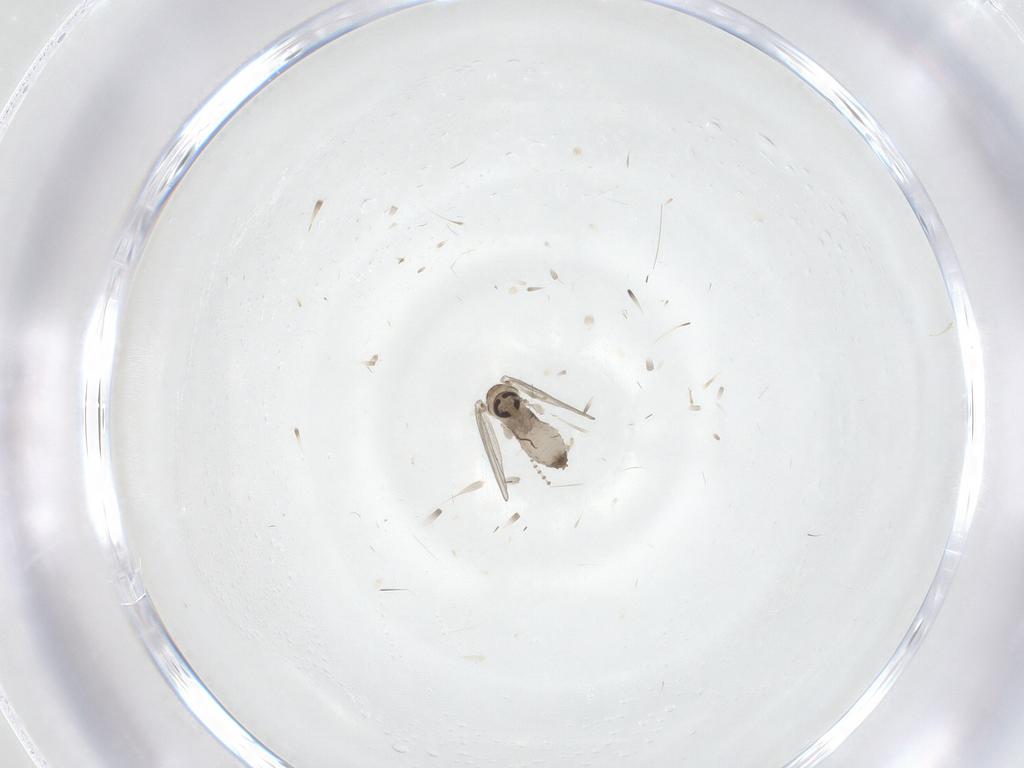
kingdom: Animalia
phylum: Arthropoda
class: Insecta
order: Diptera
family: Psychodidae
